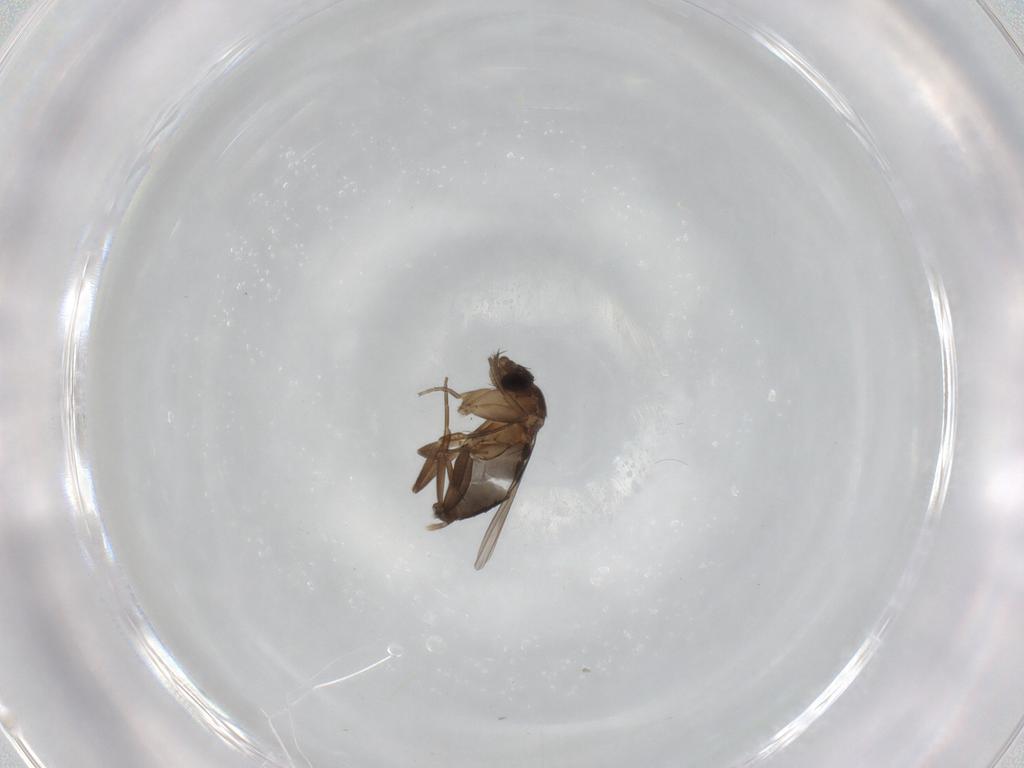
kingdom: Animalia
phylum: Arthropoda
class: Insecta
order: Diptera
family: Phoridae
